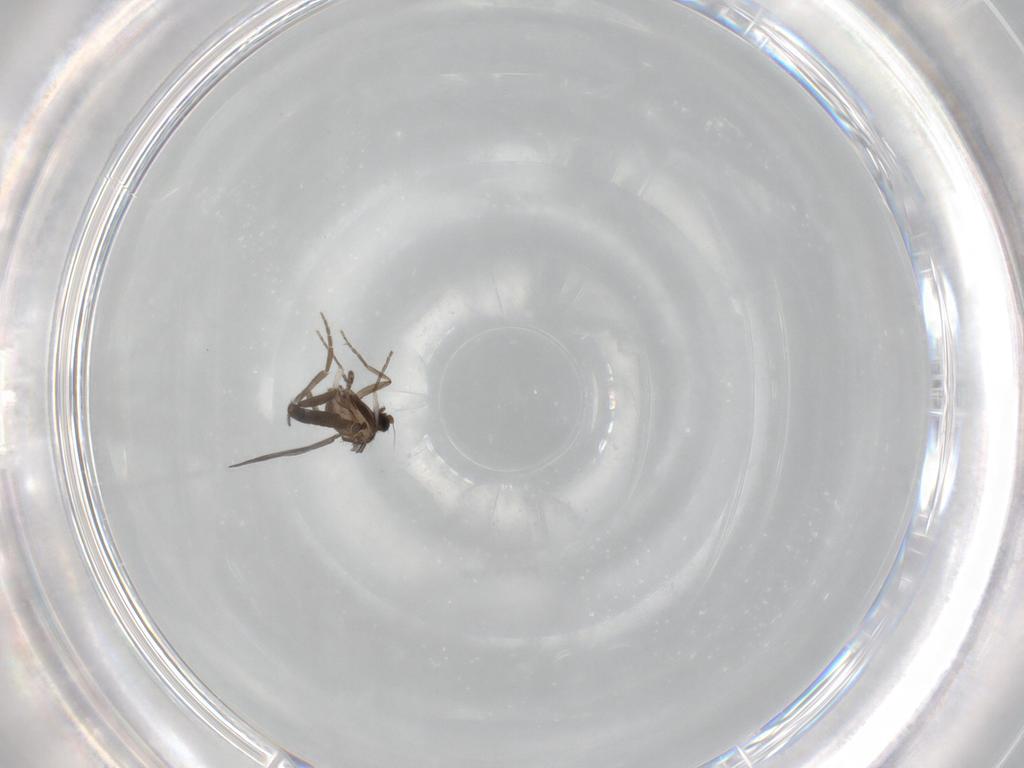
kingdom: Animalia
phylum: Arthropoda
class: Insecta
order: Diptera
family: Phoridae
